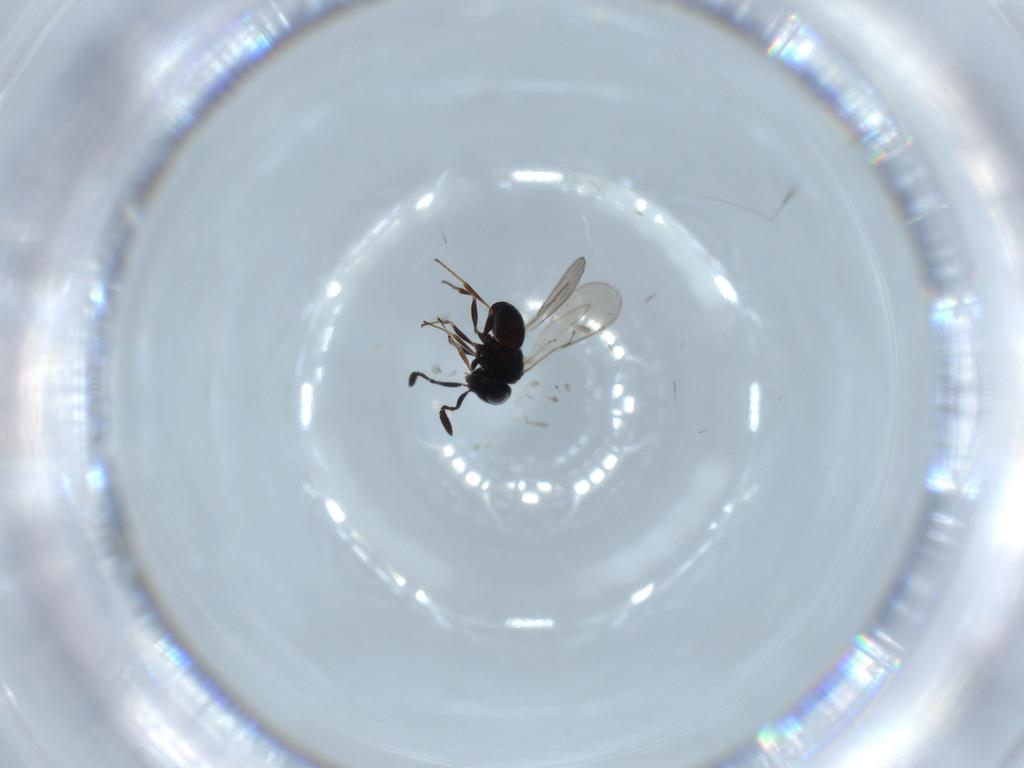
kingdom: Animalia
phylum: Arthropoda
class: Insecta
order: Hymenoptera
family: Scelionidae
